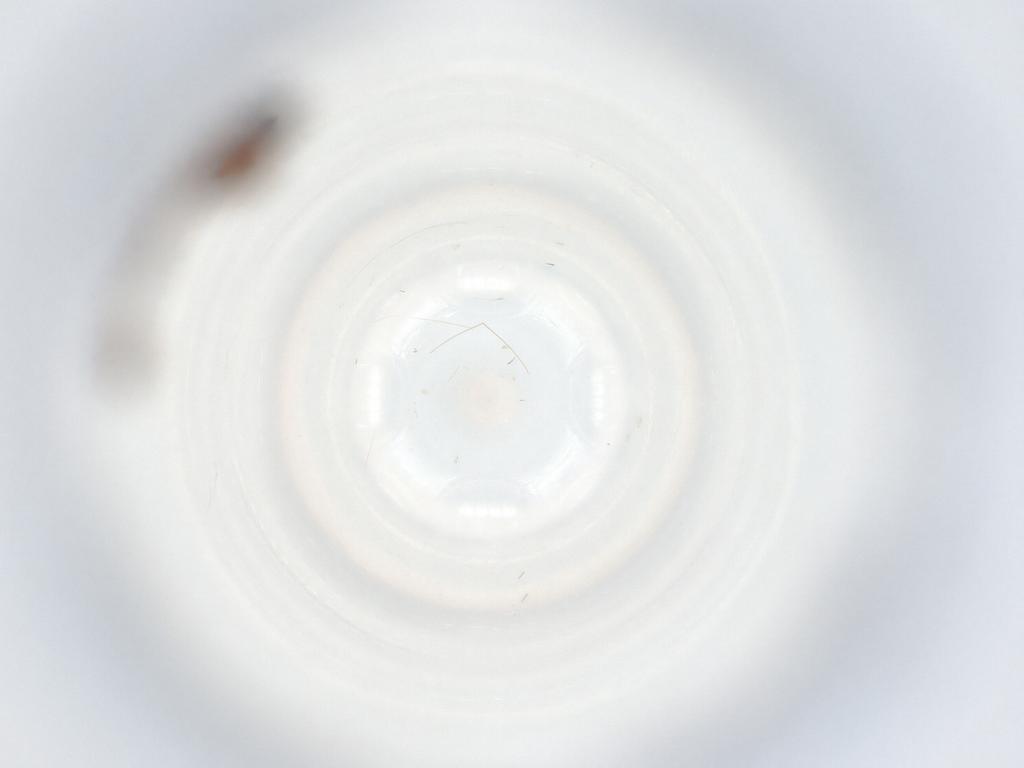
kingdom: Animalia
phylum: Arthropoda
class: Insecta
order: Diptera
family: Sciaridae
